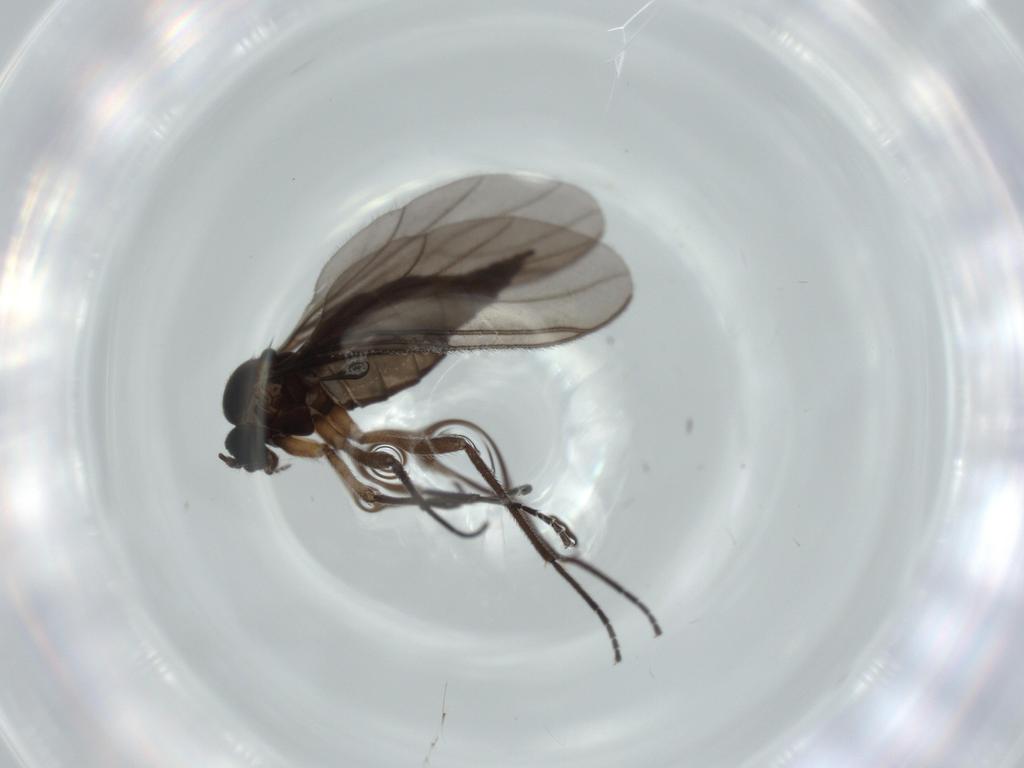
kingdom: Animalia
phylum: Arthropoda
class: Insecta
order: Diptera
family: Sciaridae
